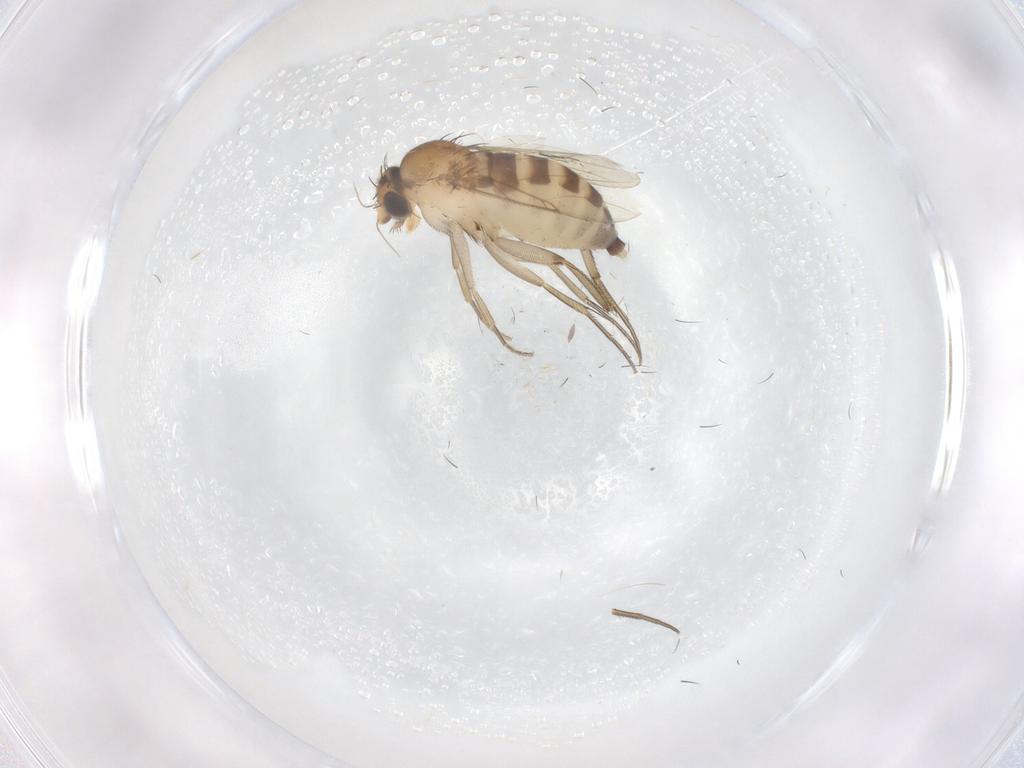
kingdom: Animalia
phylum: Arthropoda
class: Insecta
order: Diptera
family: Phoridae
